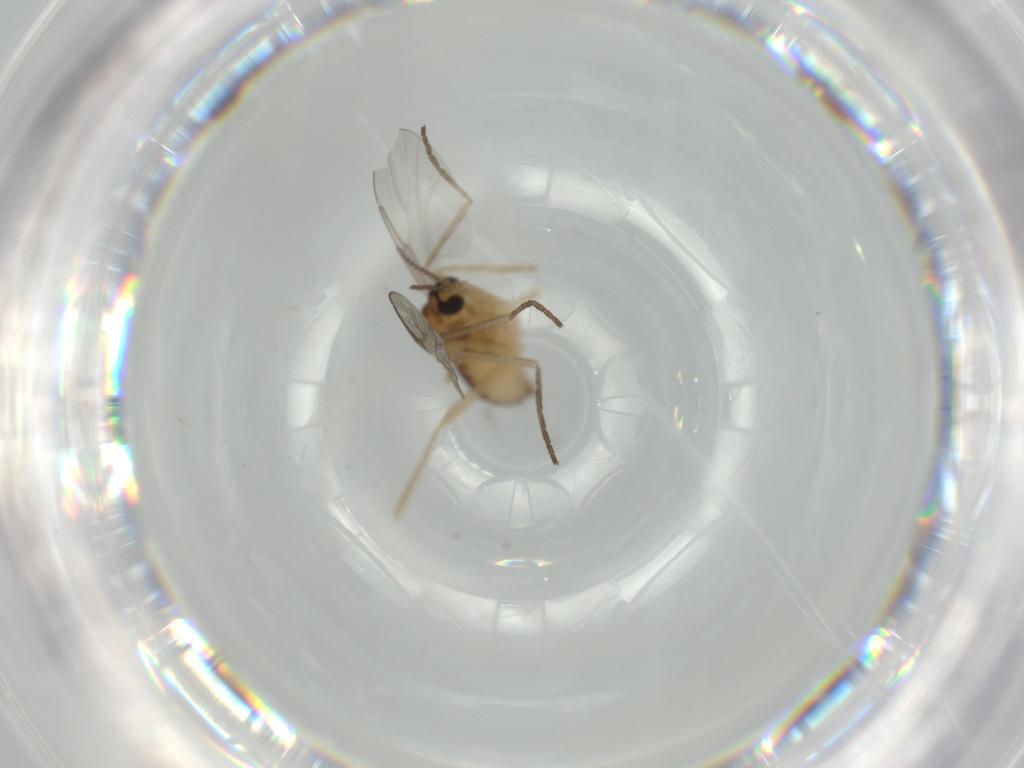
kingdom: Animalia
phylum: Arthropoda
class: Insecta
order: Diptera
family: Cecidomyiidae
